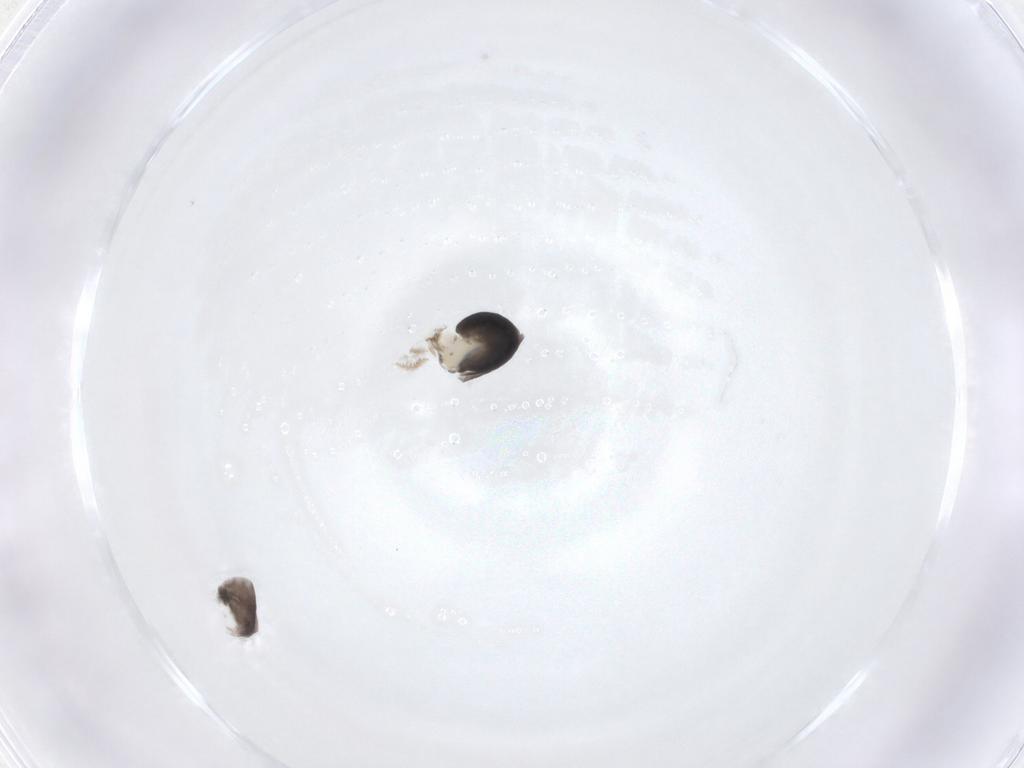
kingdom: Animalia
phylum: Arthropoda
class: Insecta
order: Hymenoptera
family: Dryinidae
